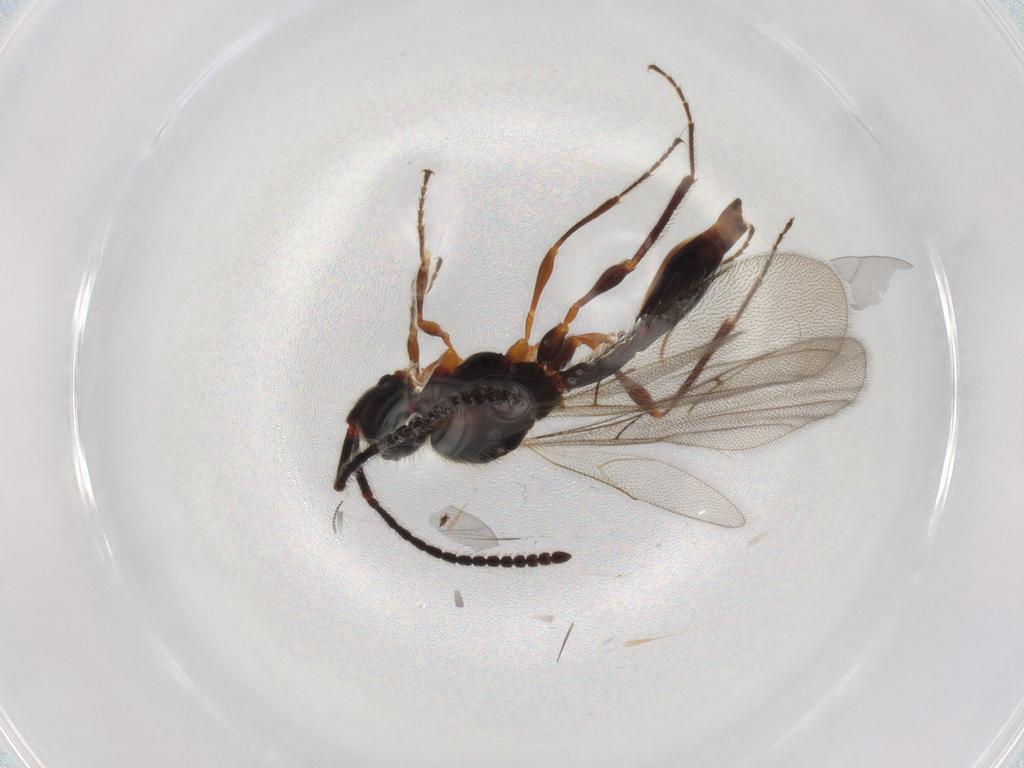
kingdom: Animalia
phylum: Arthropoda
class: Insecta
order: Hymenoptera
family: Diapriidae
